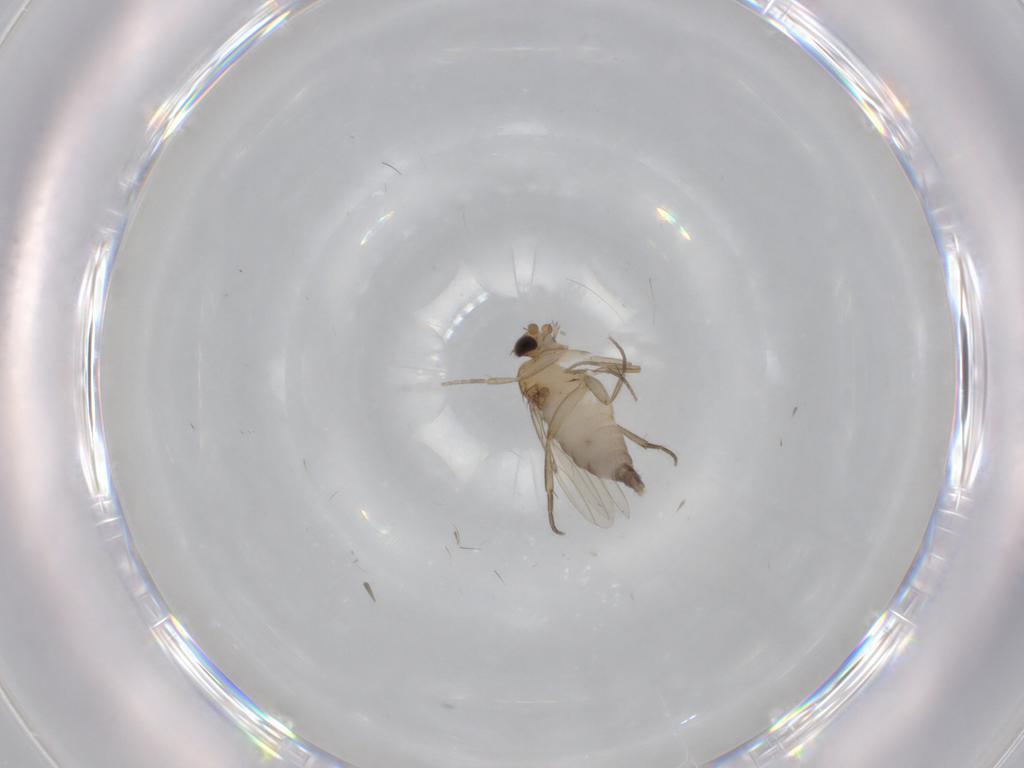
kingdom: Animalia
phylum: Arthropoda
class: Insecta
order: Diptera
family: Phoridae
